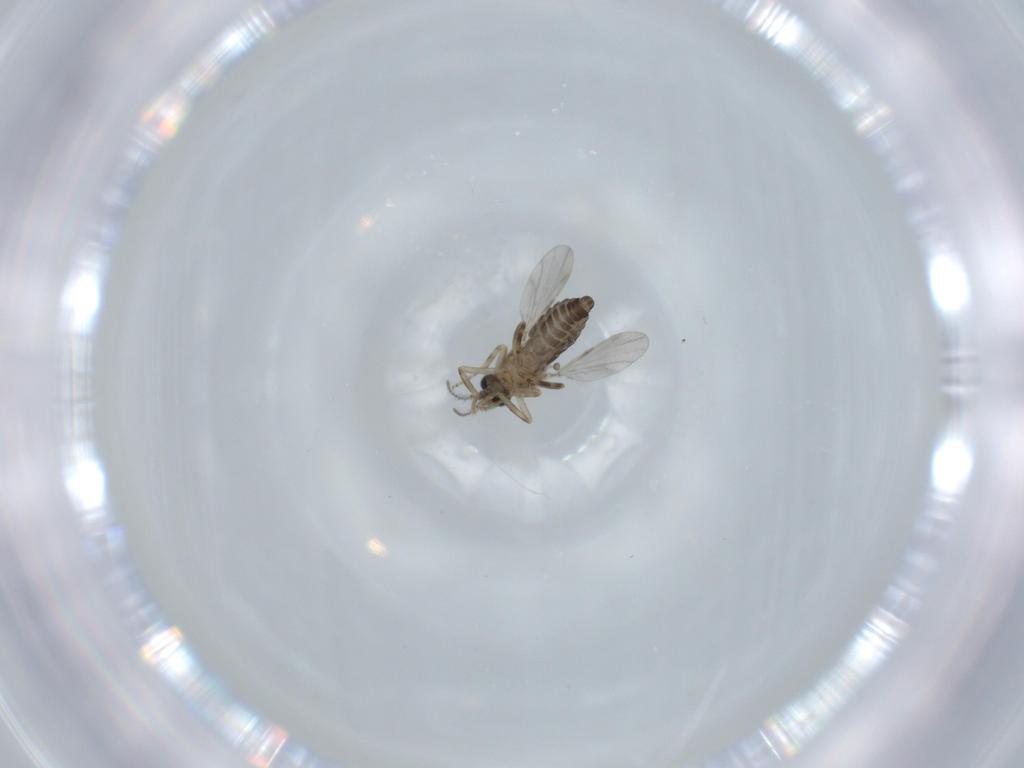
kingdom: Animalia
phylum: Arthropoda
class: Insecta
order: Diptera
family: Ceratopogonidae
